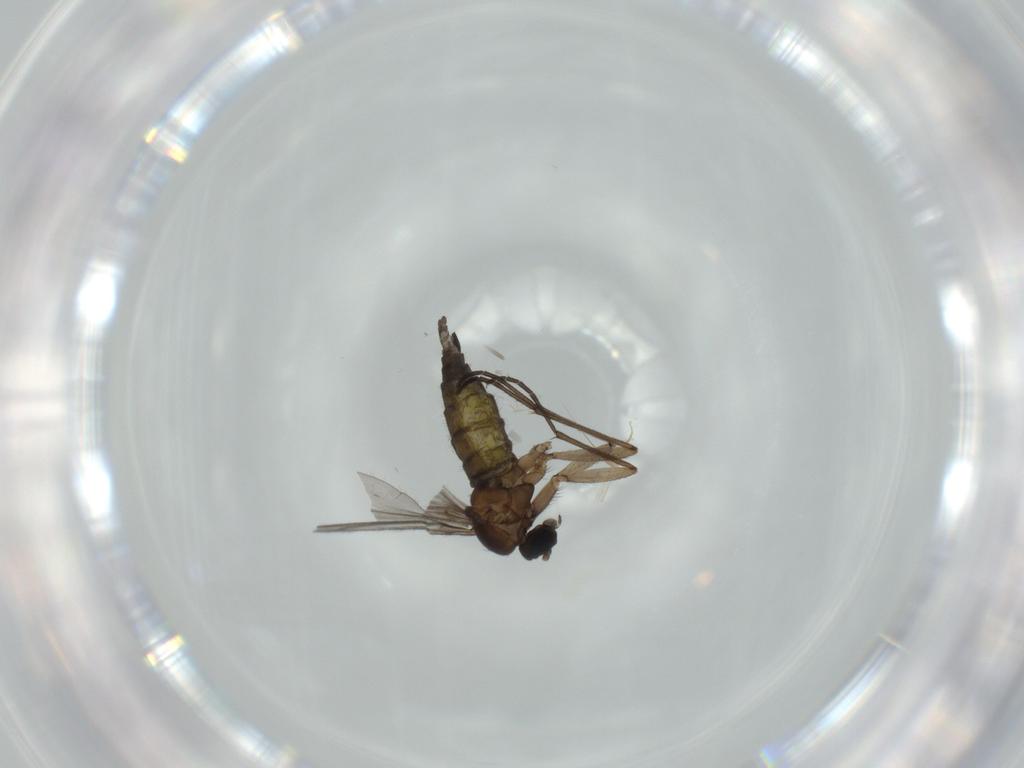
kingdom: Animalia
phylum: Arthropoda
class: Insecta
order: Diptera
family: Sciaridae
